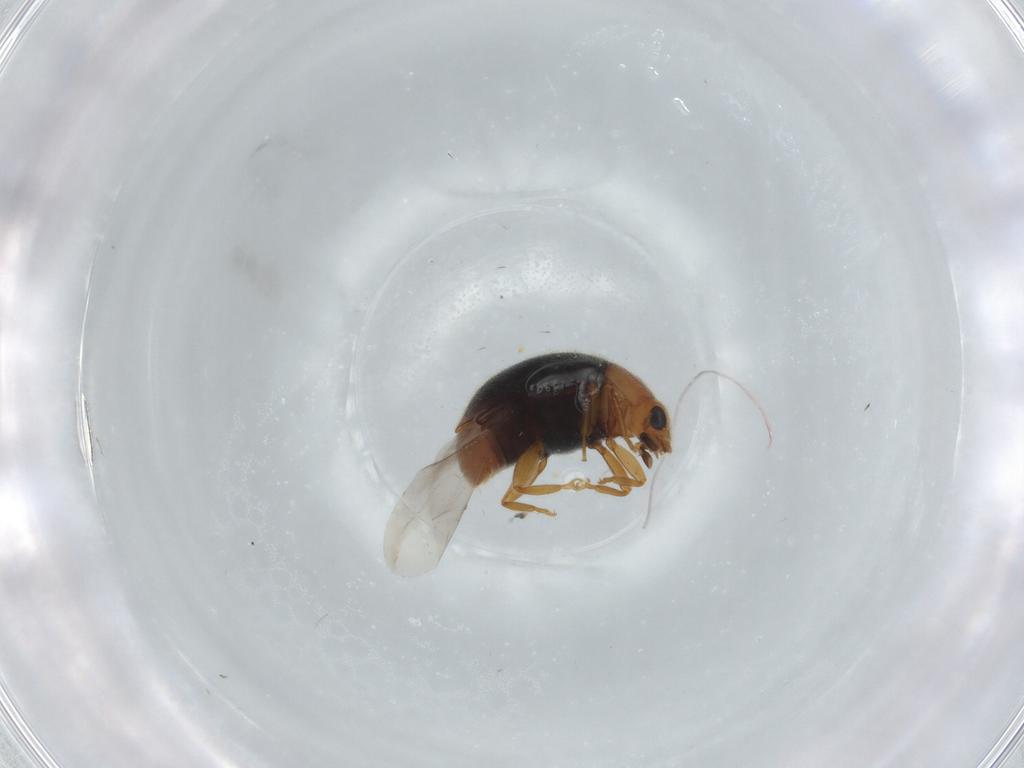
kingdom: Animalia
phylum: Arthropoda
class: Insecta
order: Coleoptera
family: Coccinellidae
